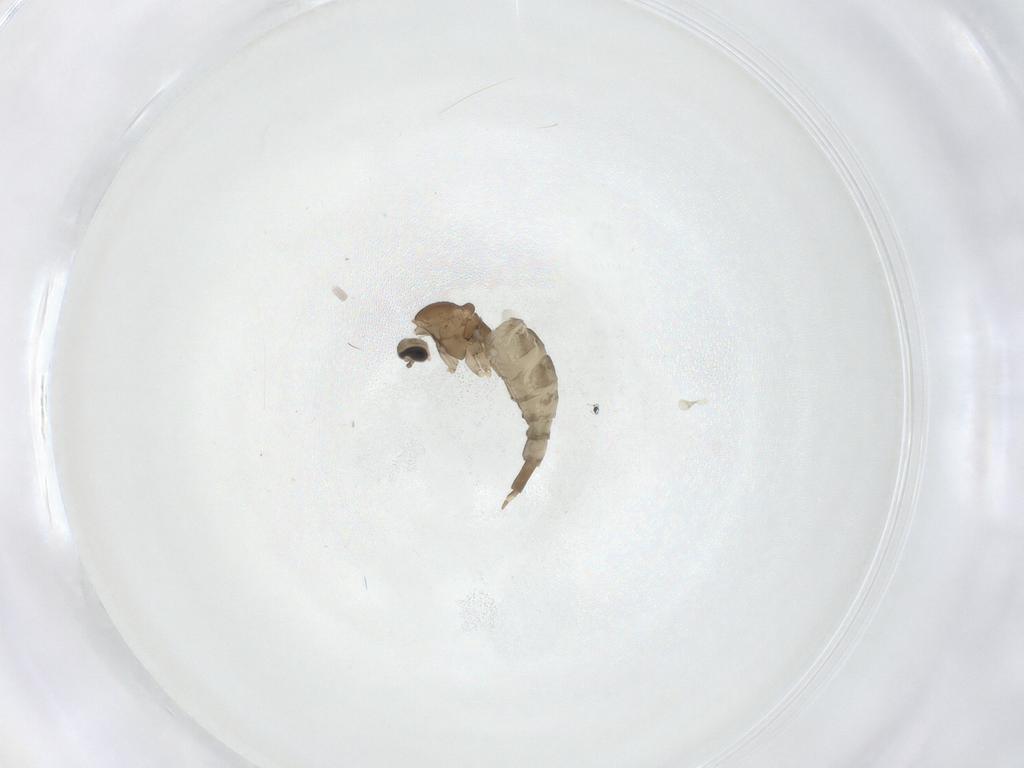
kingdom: Animalia
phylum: Arthropoda
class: Insecta
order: Diptera
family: Cecidomyiidae
